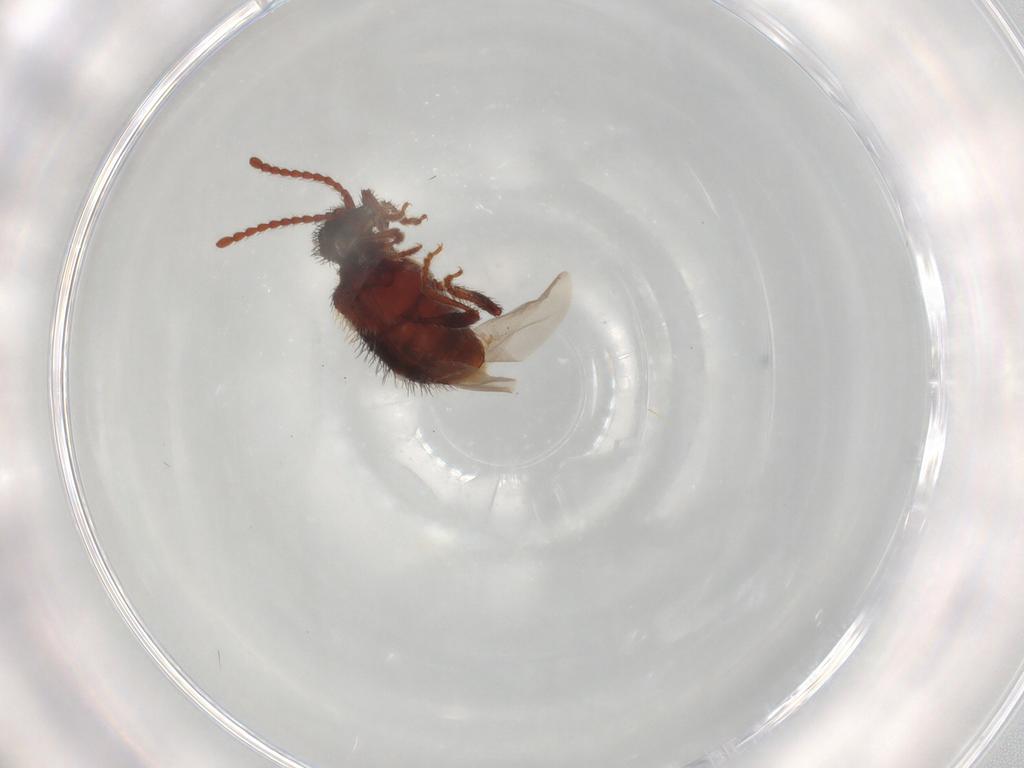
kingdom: Animalia
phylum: Arthropoda
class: Insecta
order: Coleoptera
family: Ptinidae
